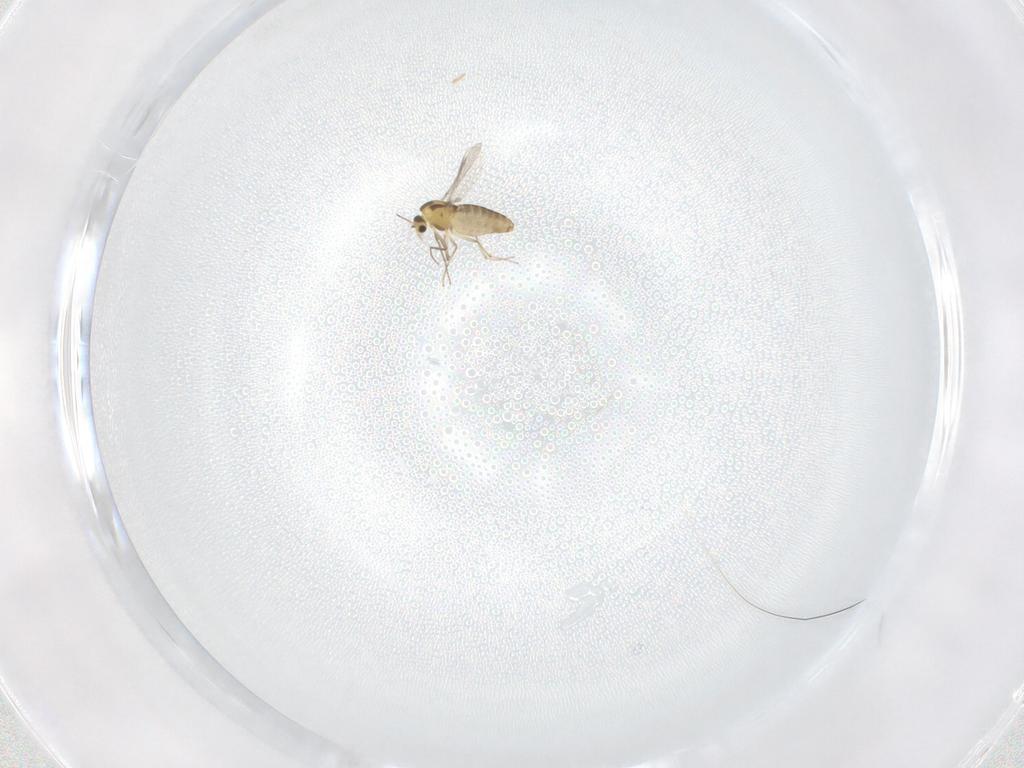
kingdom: Animalia
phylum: Arthropoda
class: Insecta
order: Diptera
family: Chironomidae
